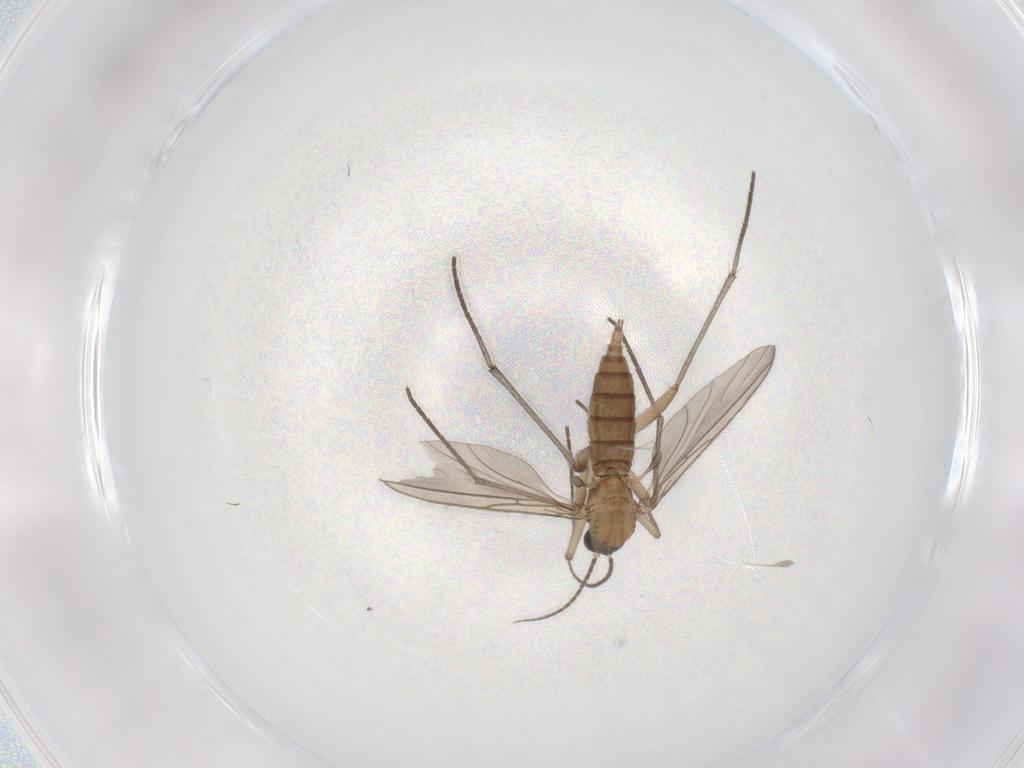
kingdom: Animalia
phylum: Arthropoda
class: Insecta
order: Diptera
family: Sciaridae
